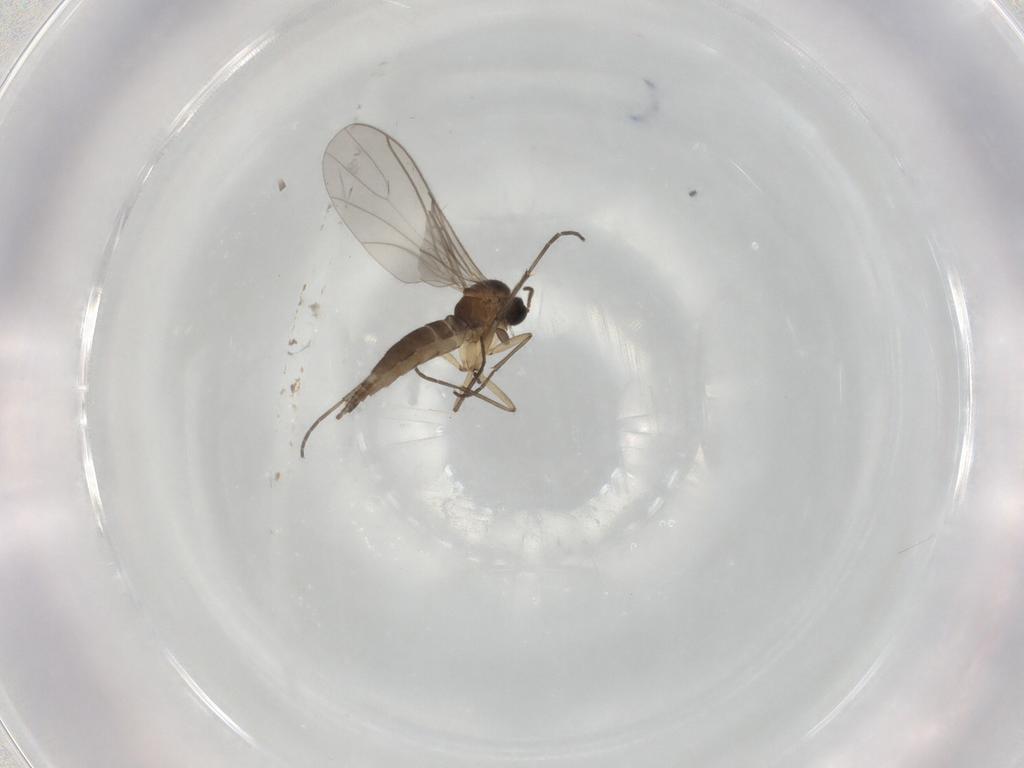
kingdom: Animalia
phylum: Arthropoda
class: Insecta
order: Diptera
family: Sciaridae
